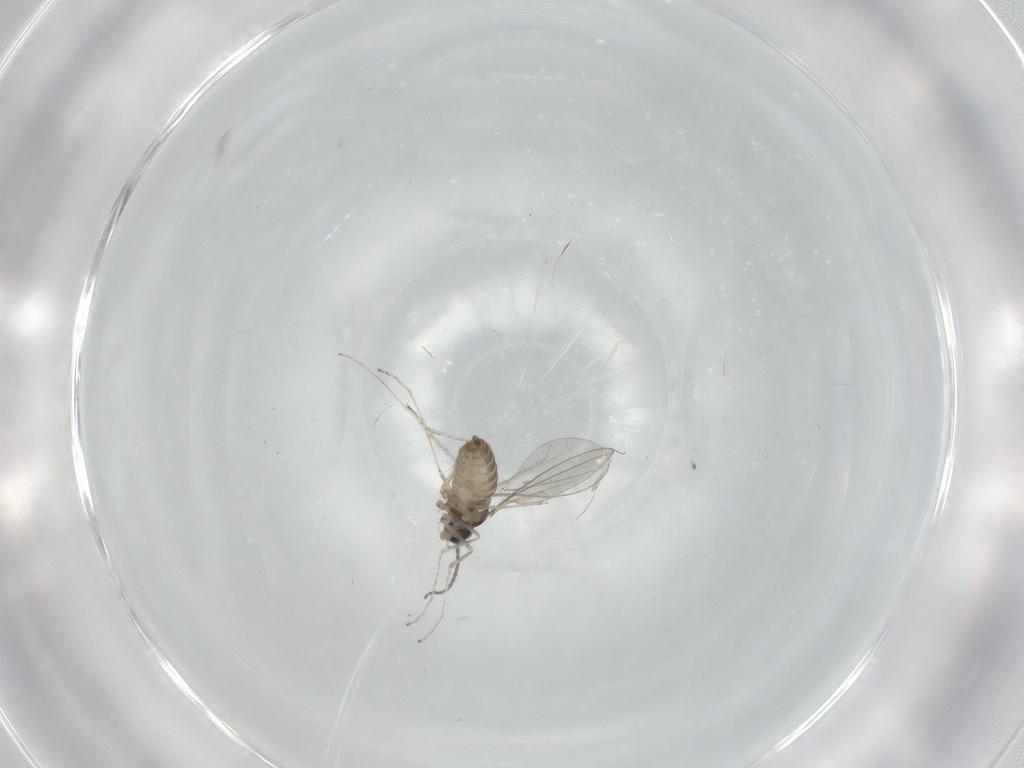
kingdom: Animalia
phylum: Arthropoda
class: Insecta
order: Diptera
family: Cecidomyiidae
